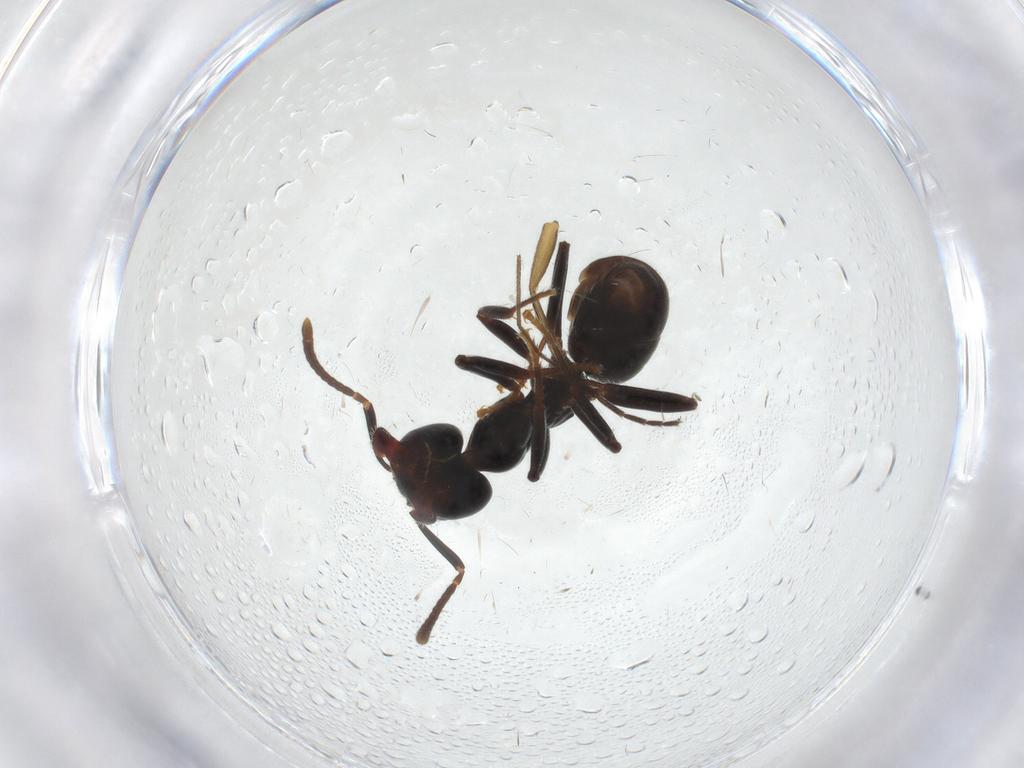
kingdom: Animalia
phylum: Arthropoda
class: Insecta
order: Hymenoptera
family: Formicidae
